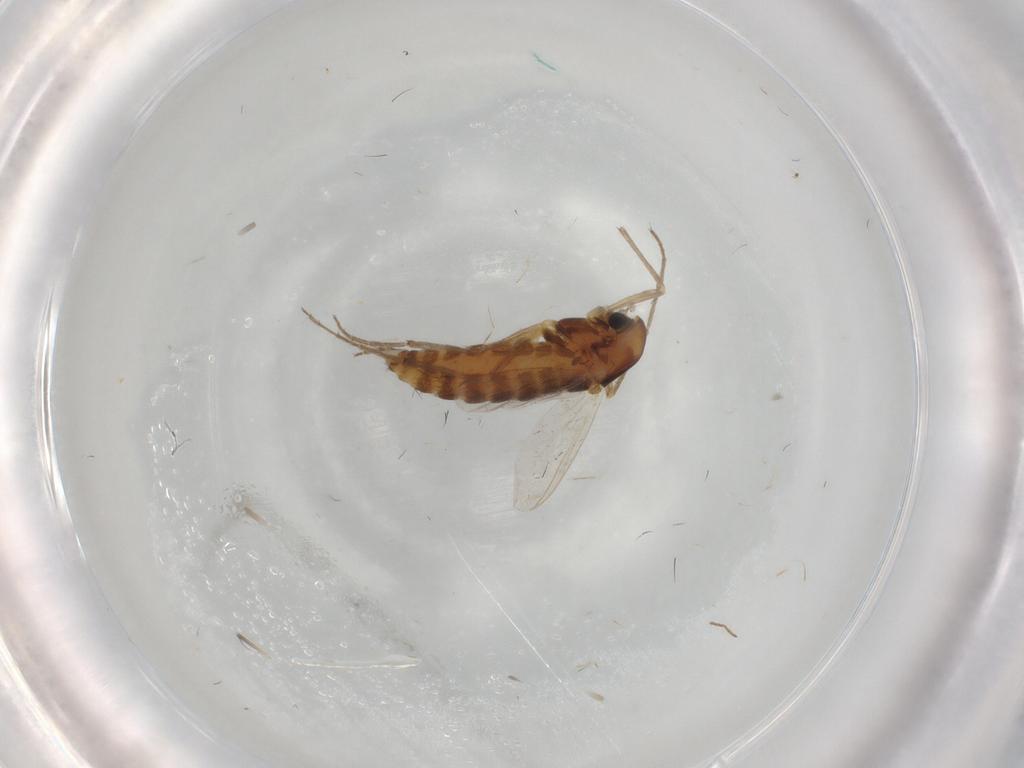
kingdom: Animalia
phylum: Arthropoda
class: Insecta
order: Diptera
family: Chironomidae
